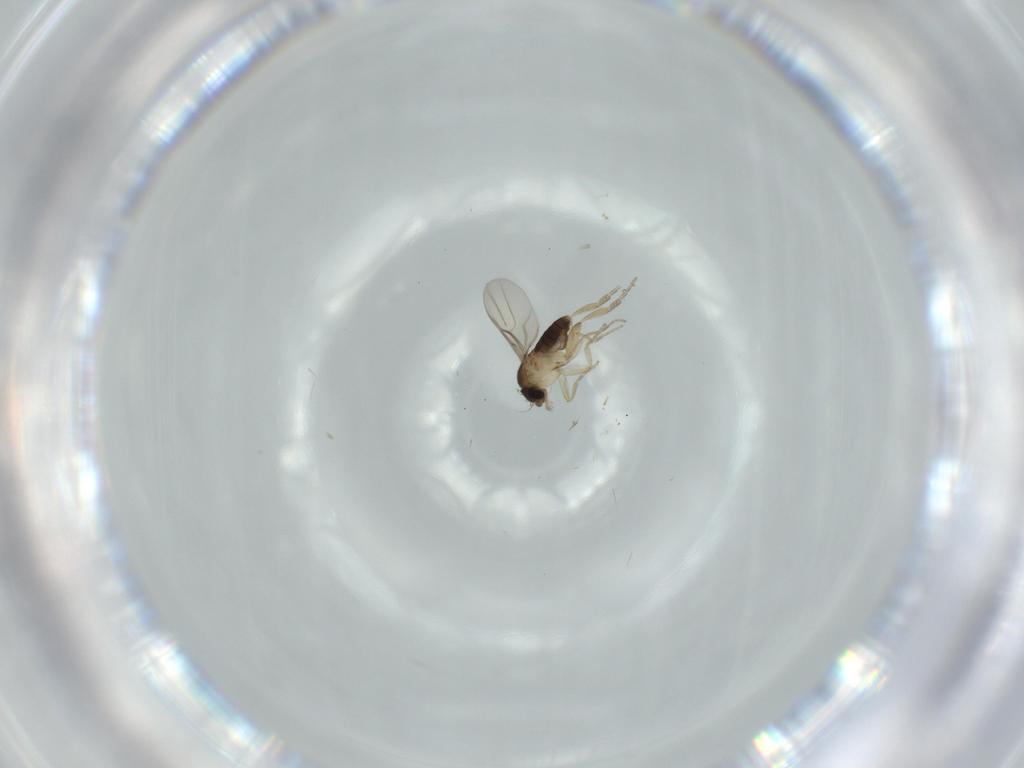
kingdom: Animalia
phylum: Arthropoda
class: Insecta
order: Diptera
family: Phoridae
